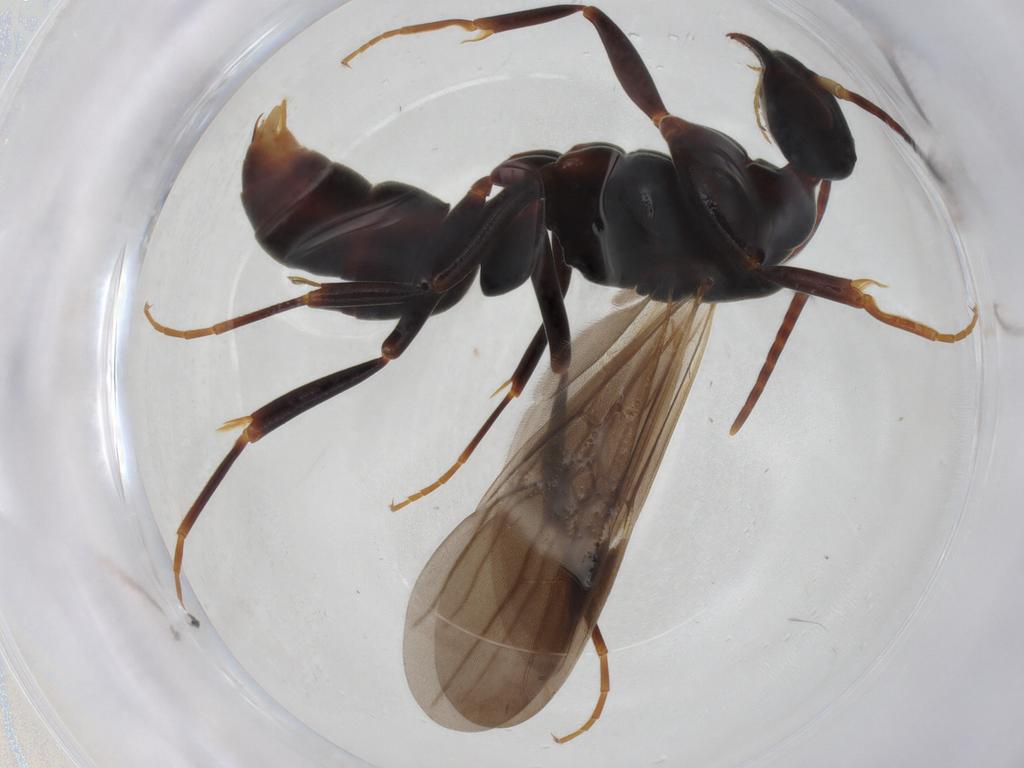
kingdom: Animalia
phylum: Arthropoda
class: Insecta
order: Hymenoptera
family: Formicidae
